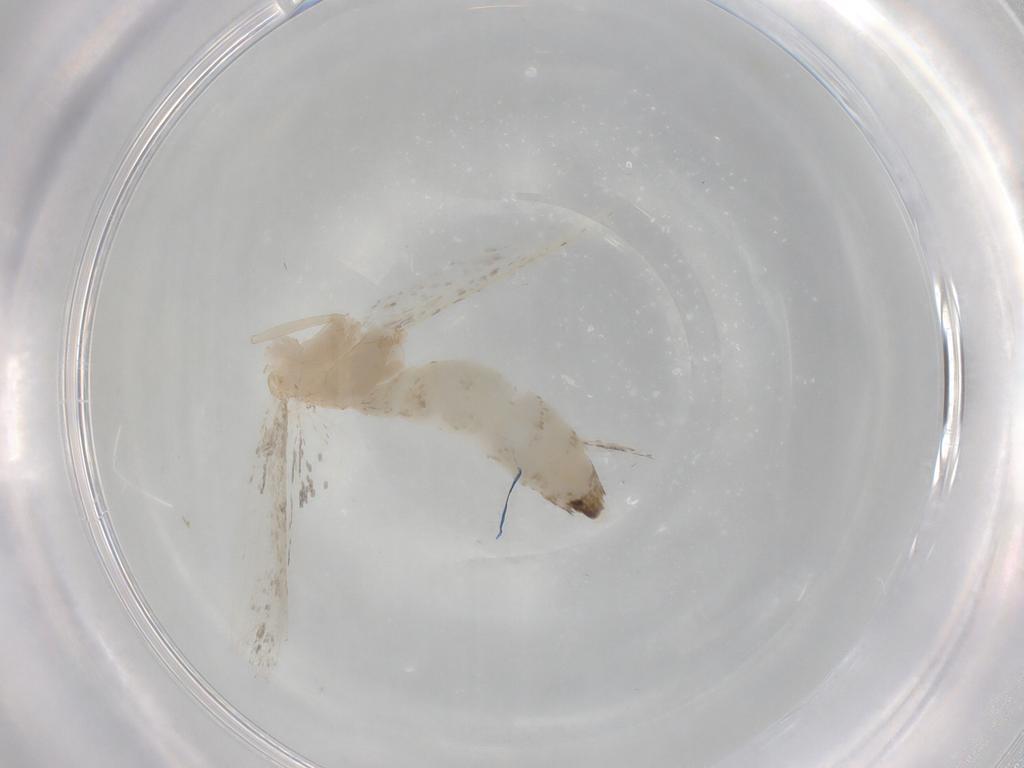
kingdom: Animalia
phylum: Arthropoda
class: Insecta
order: Lepidoptera
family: Gelechiidae
